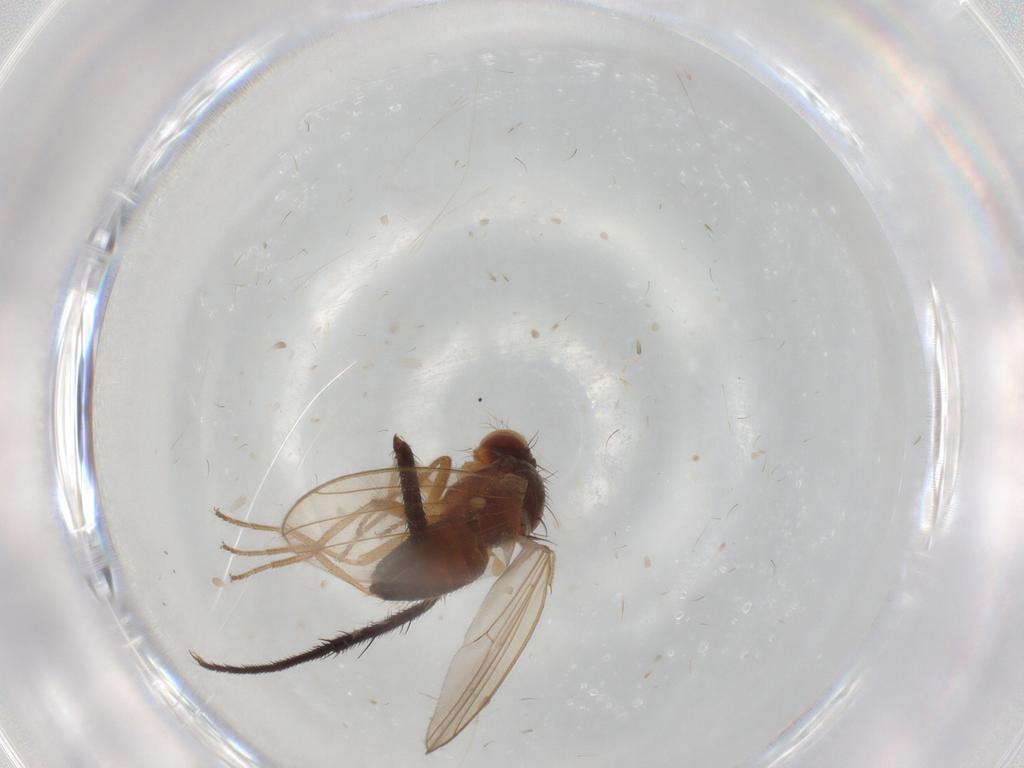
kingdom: Animalia
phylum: Arthropoda
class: Insecta
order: Diptera
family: Drosophilidae
